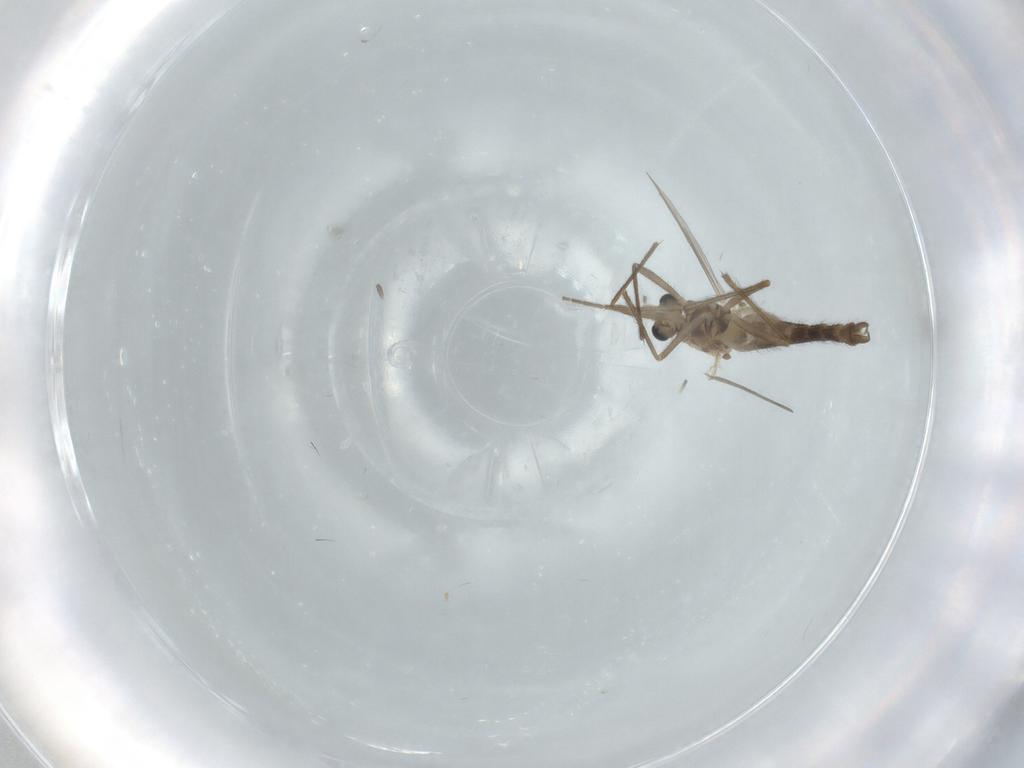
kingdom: Animalia
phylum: Arthropoda
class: Insecta
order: Diptera
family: Chironomidae
